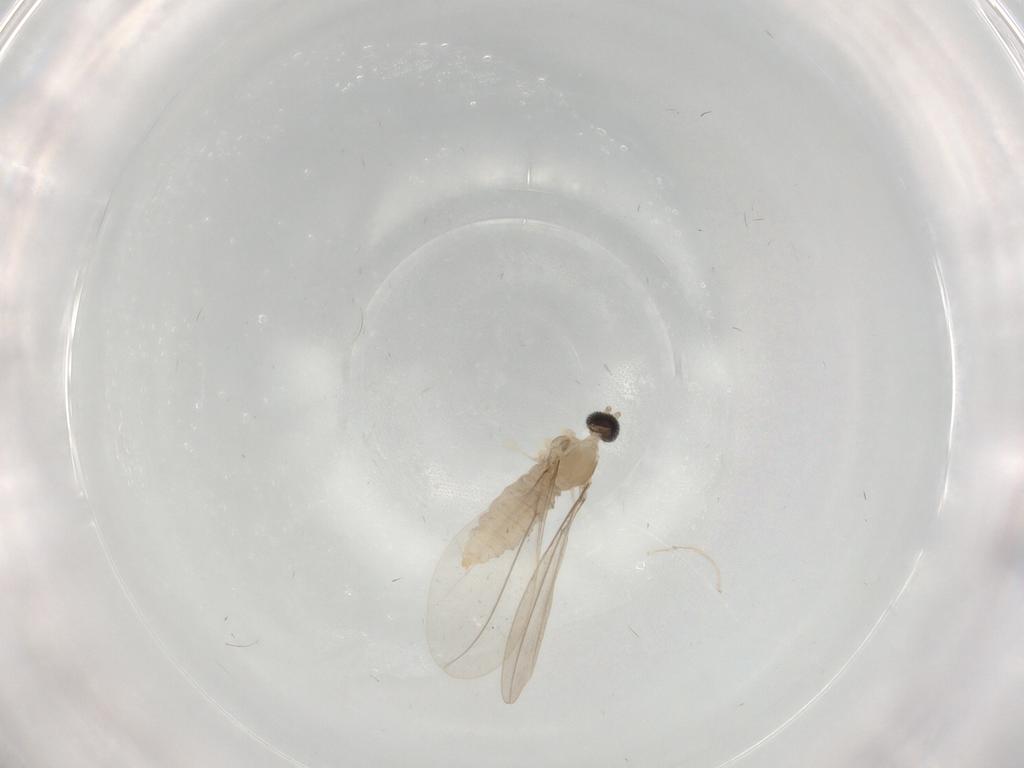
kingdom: Animalia
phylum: Arthropoda
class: Insecta
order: Diptera
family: Cecidomyiidae
